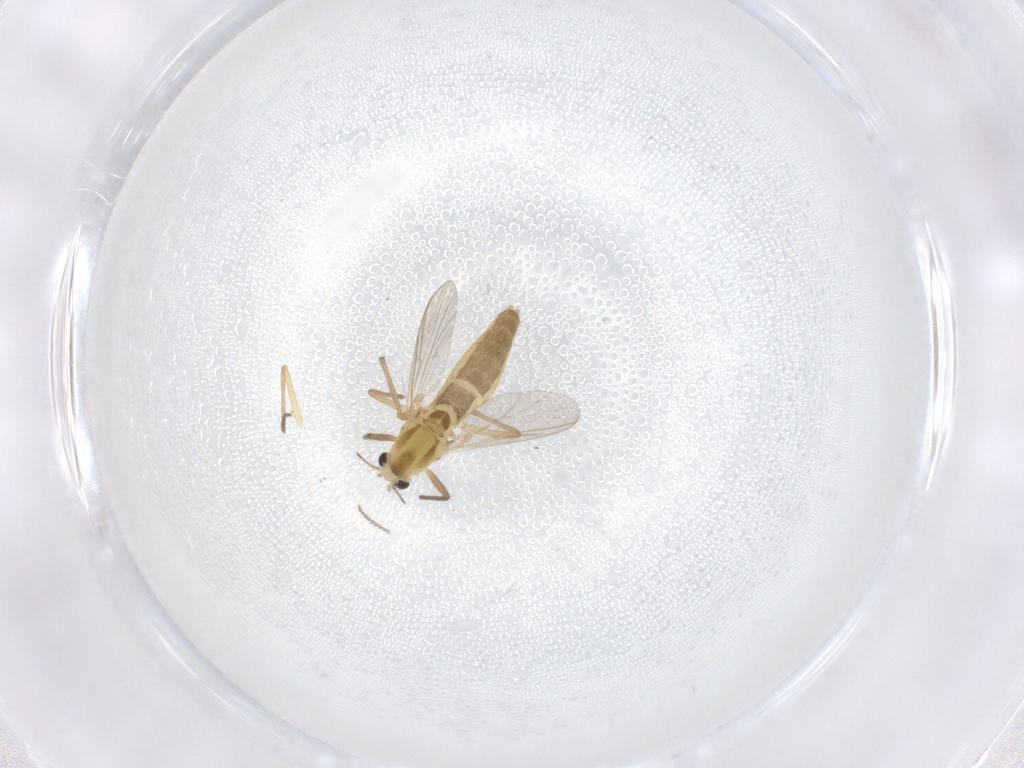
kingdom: Animalia
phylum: Arthropoda
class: Insecta
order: Diptera
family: Chironomidae
